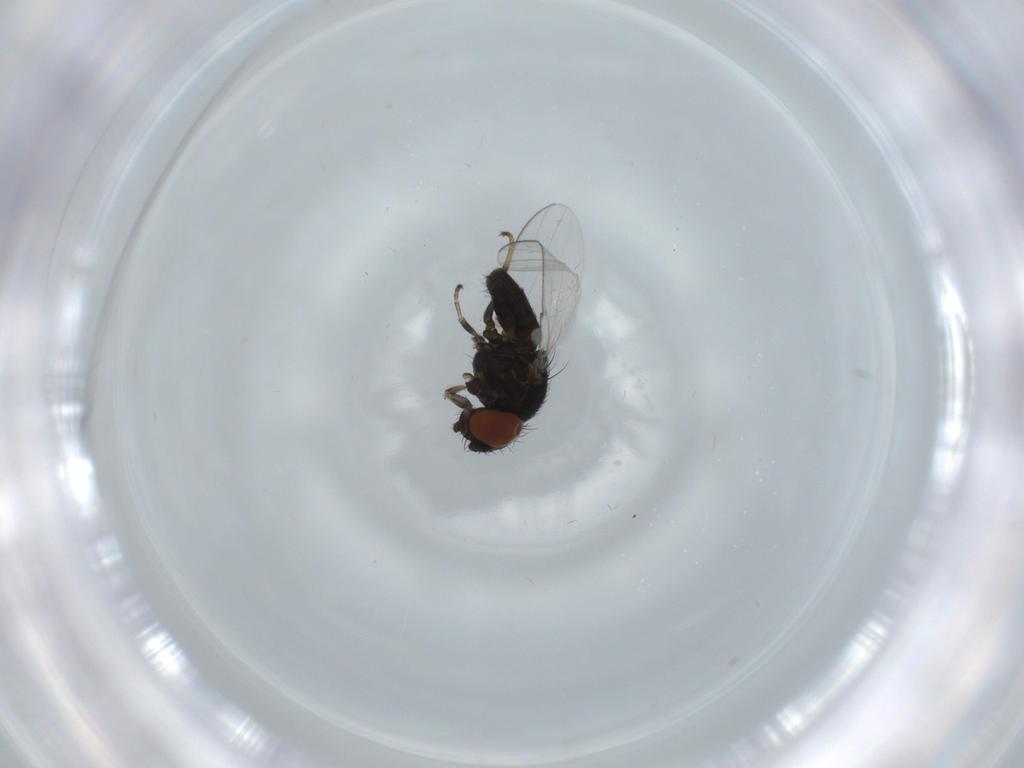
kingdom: Animalia
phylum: Arthropoda
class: Insecta
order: Diptera
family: Milichiidae
